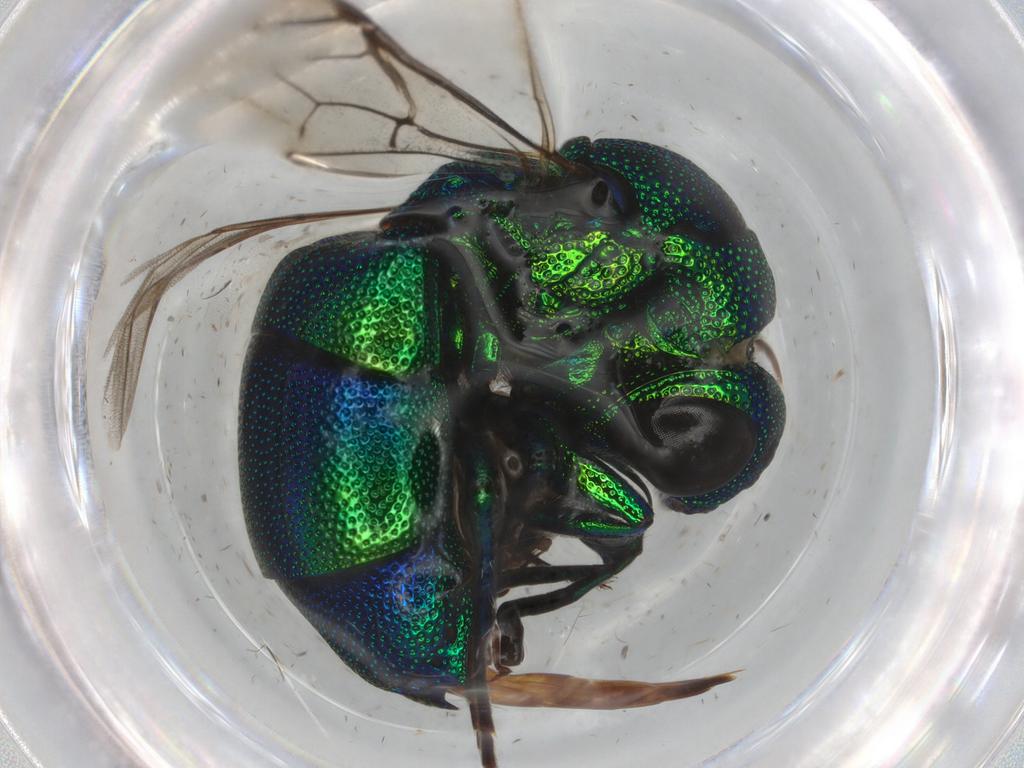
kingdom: Animalia
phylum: Arthropoda
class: Insecta
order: Hymenoptera
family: Chrysididae
